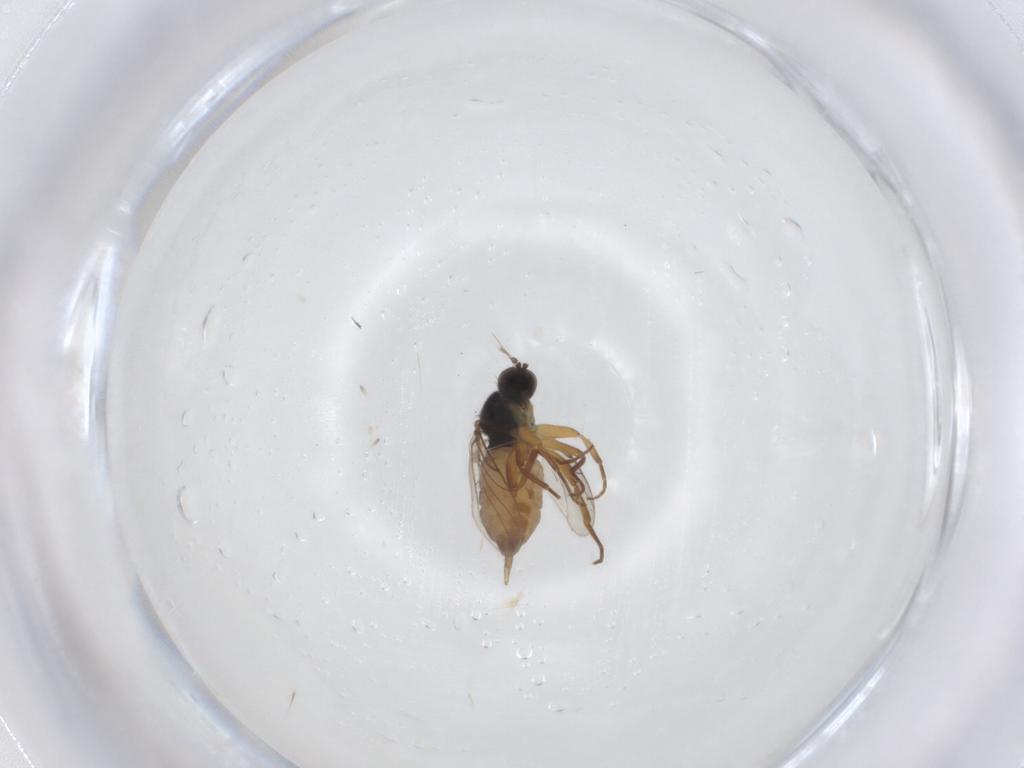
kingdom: Animalia
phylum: Arthropoda
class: Insecta
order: Diptera
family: Hybotidae
